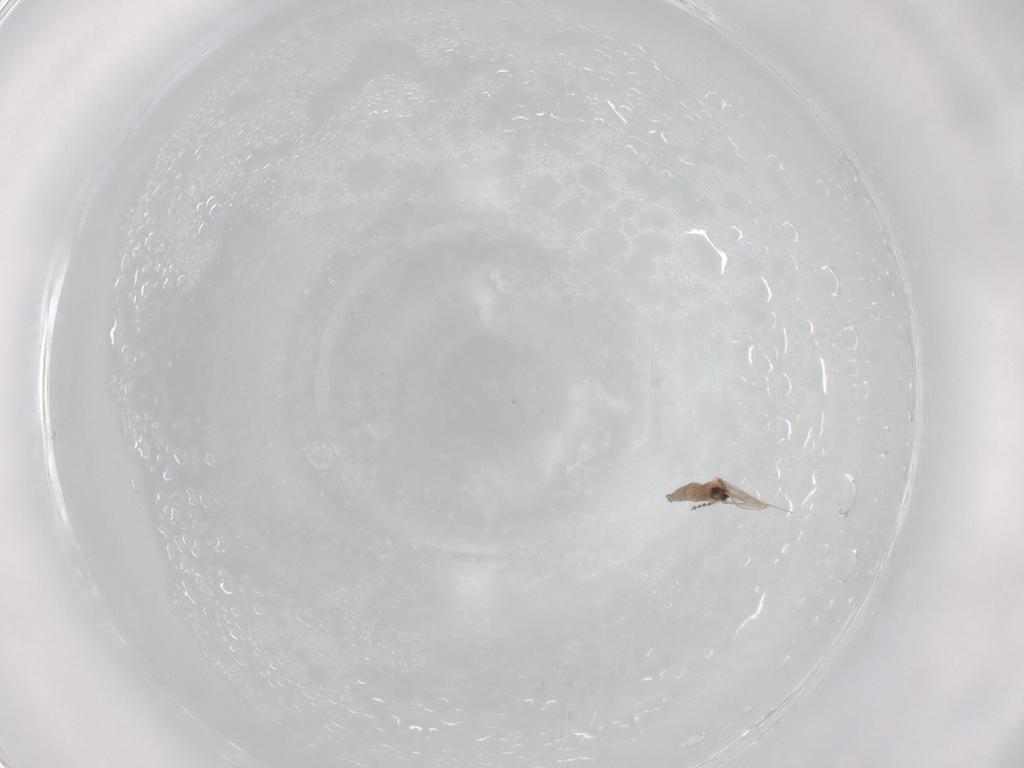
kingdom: Animalia
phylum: Arthropoda
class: Insecta
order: Diptera
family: Cecidomyiidae
